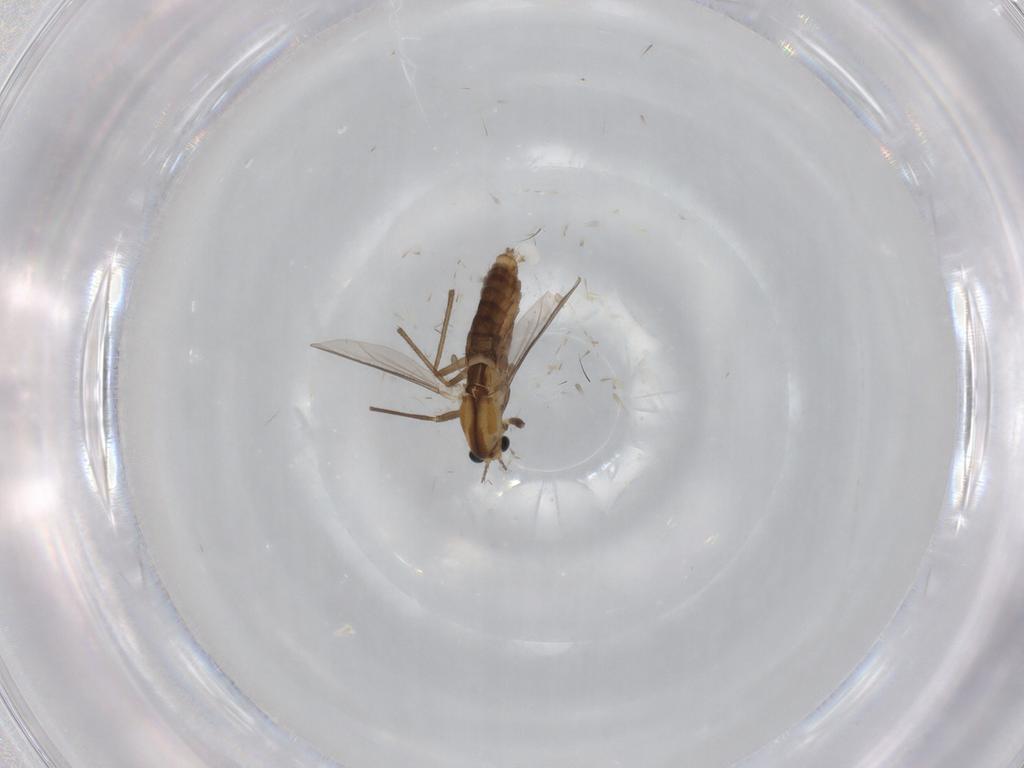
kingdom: Animalia
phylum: Arthropoda
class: Insecta
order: Diptera
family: Chironomidae
